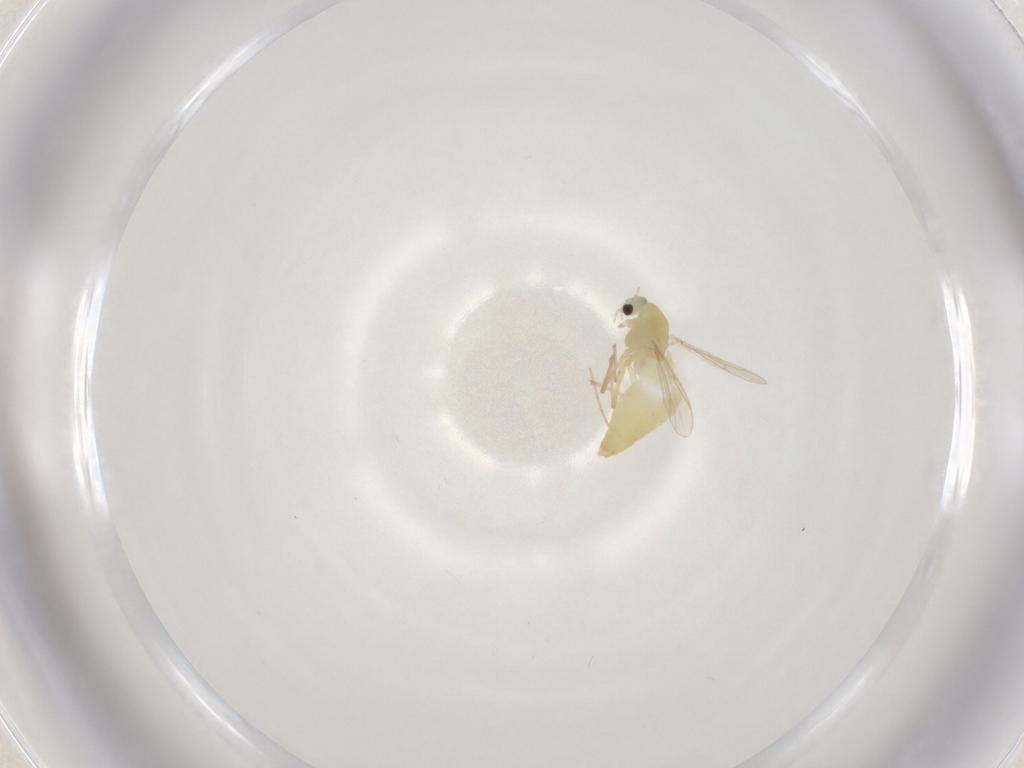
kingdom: Animalia
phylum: Arthropoda
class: Insecta
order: Diptera
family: Chironomidae
